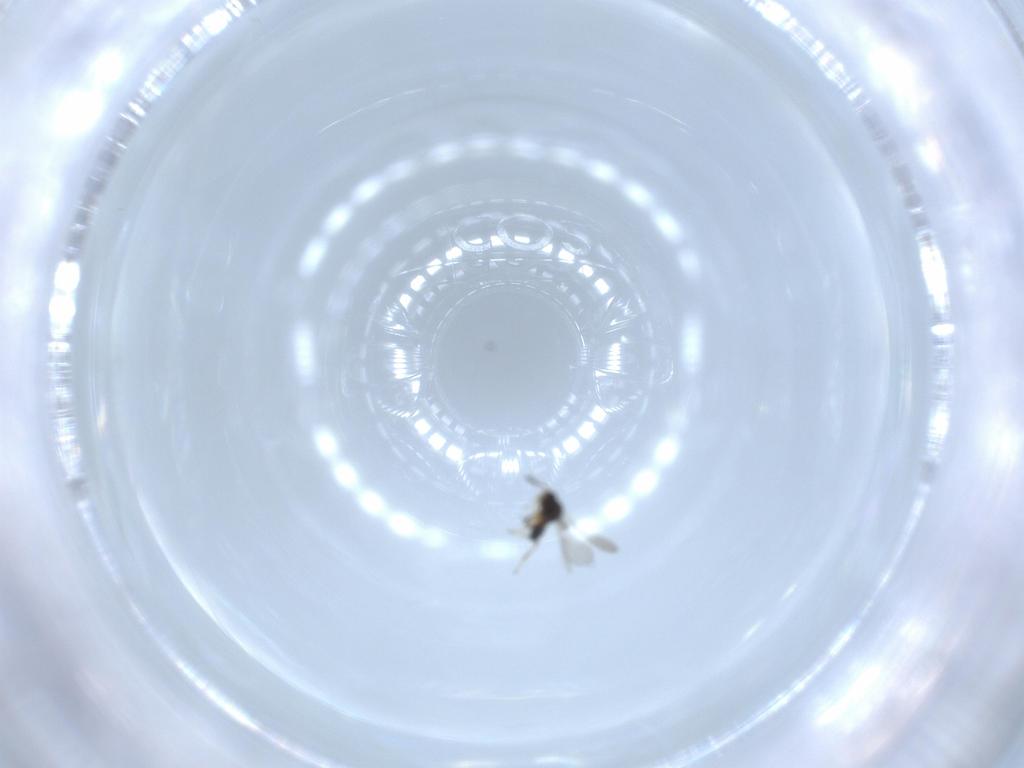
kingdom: Animalia
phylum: Arthropoda
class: Insecta
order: Hymenoptera
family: Platygastridae
